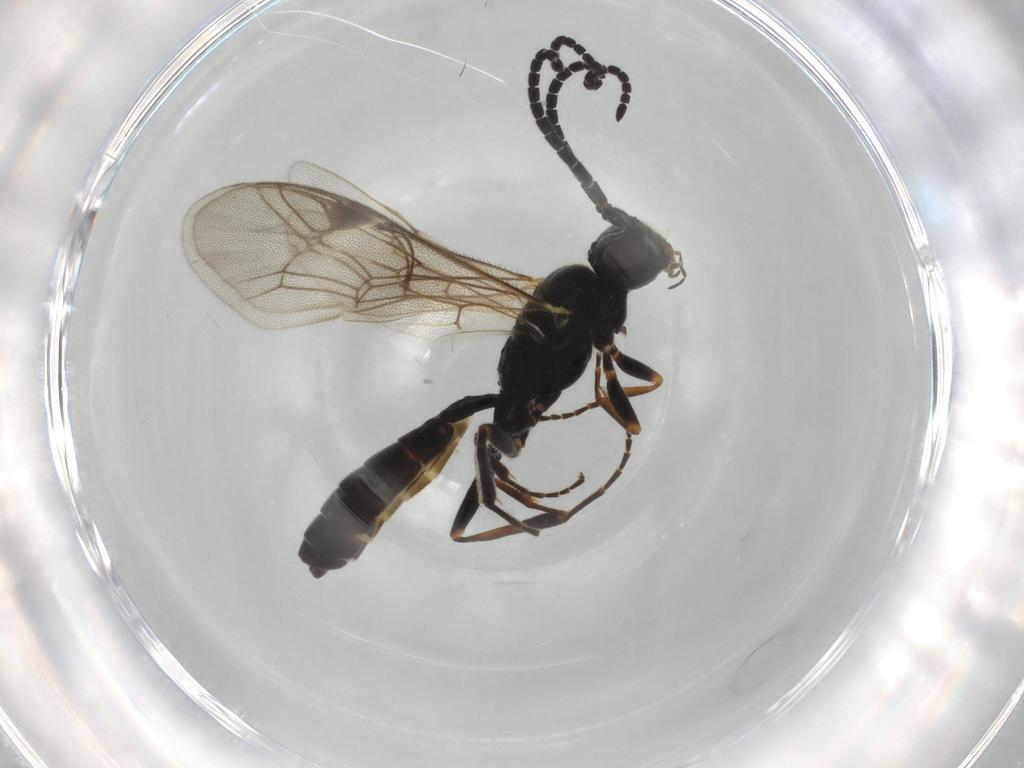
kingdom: Animalia
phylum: Arthropoda
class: Insecta
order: Hymenoptera
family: Ichneumonidae
